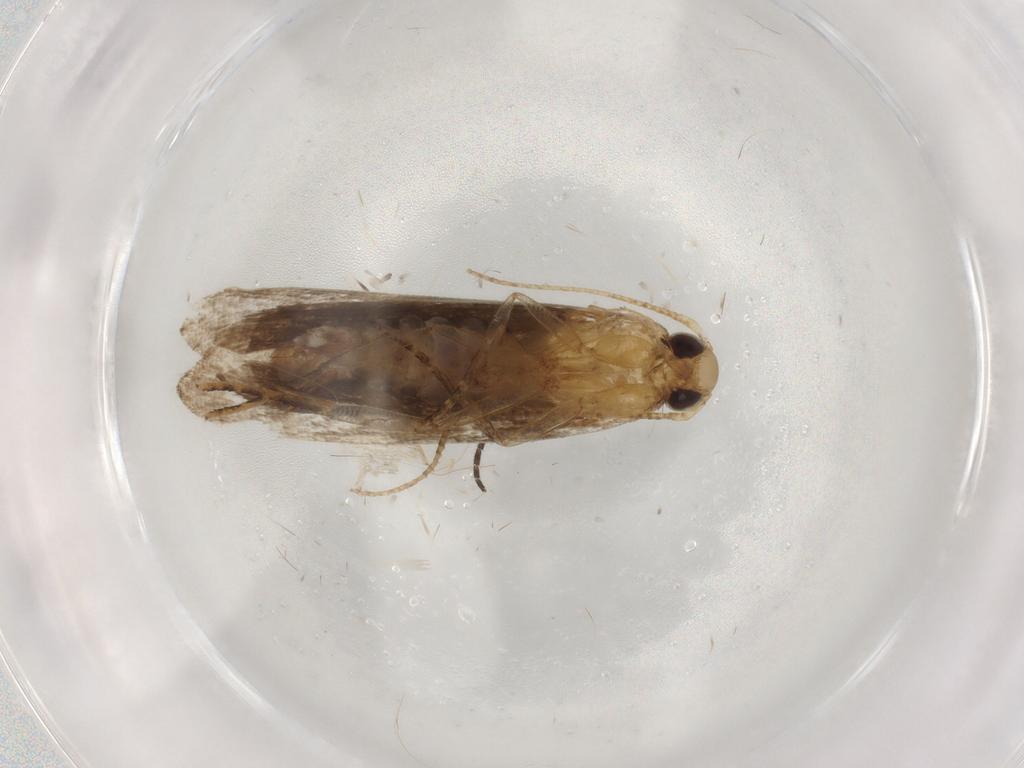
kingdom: Animalia
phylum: Arthropoda
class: Insecta
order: Lepidoptera
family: Gelechiidae
